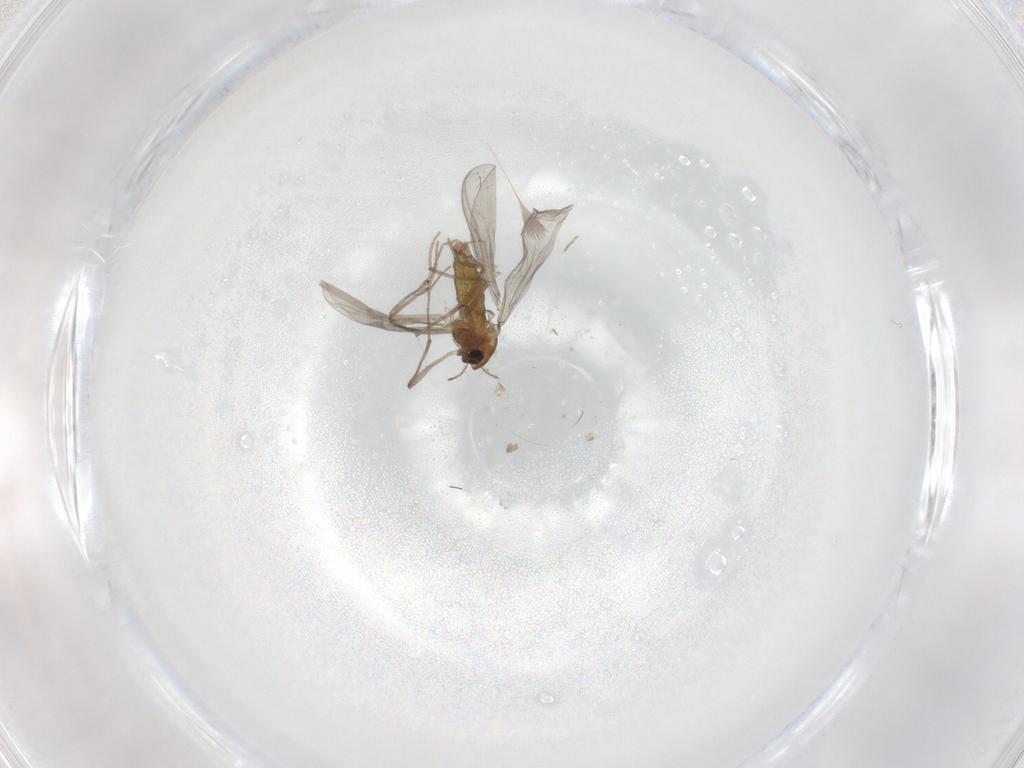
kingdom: Animalia
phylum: Arthropoda
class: Insecta
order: Diptera
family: Chironomidae
